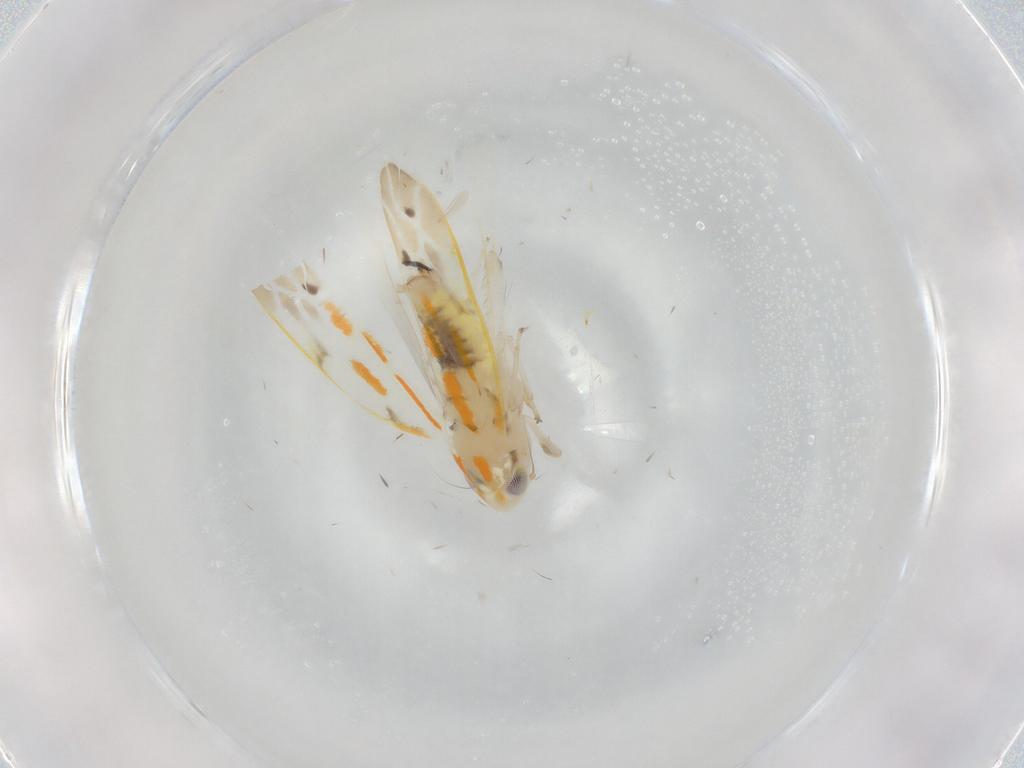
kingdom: Animalia
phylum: Arthropoda
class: Insecta
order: Hemiptera
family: Cicadellidae
